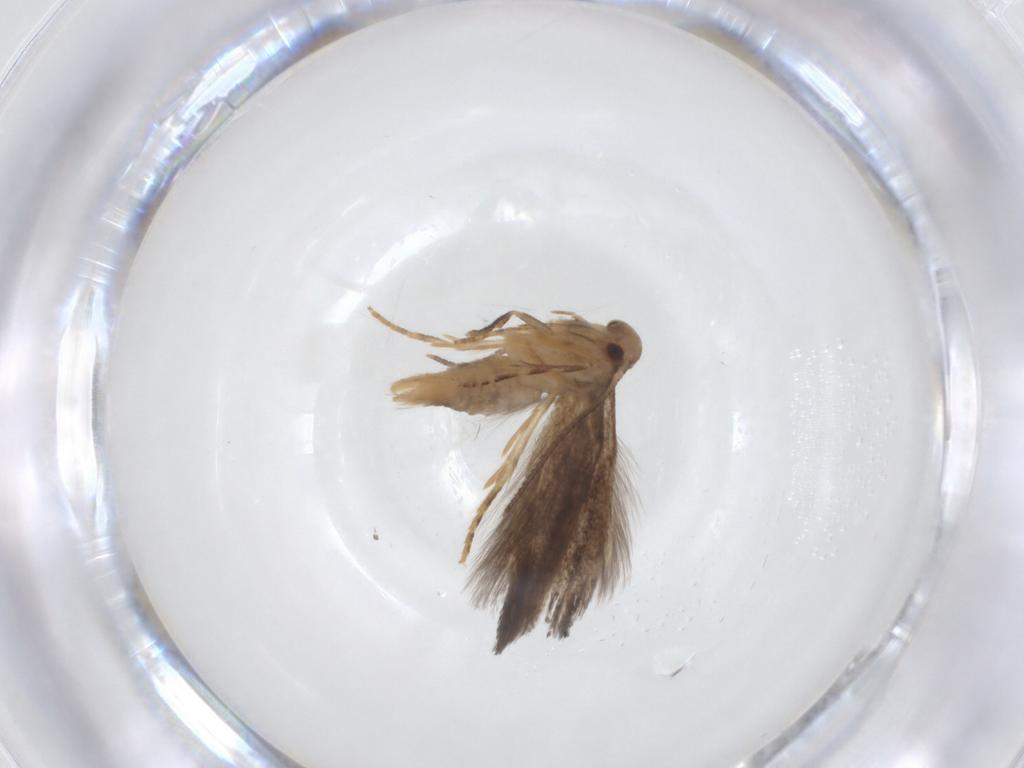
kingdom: Animalia
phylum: Arthropoda
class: Insecta
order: Lepidoptera
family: Elachistidae
